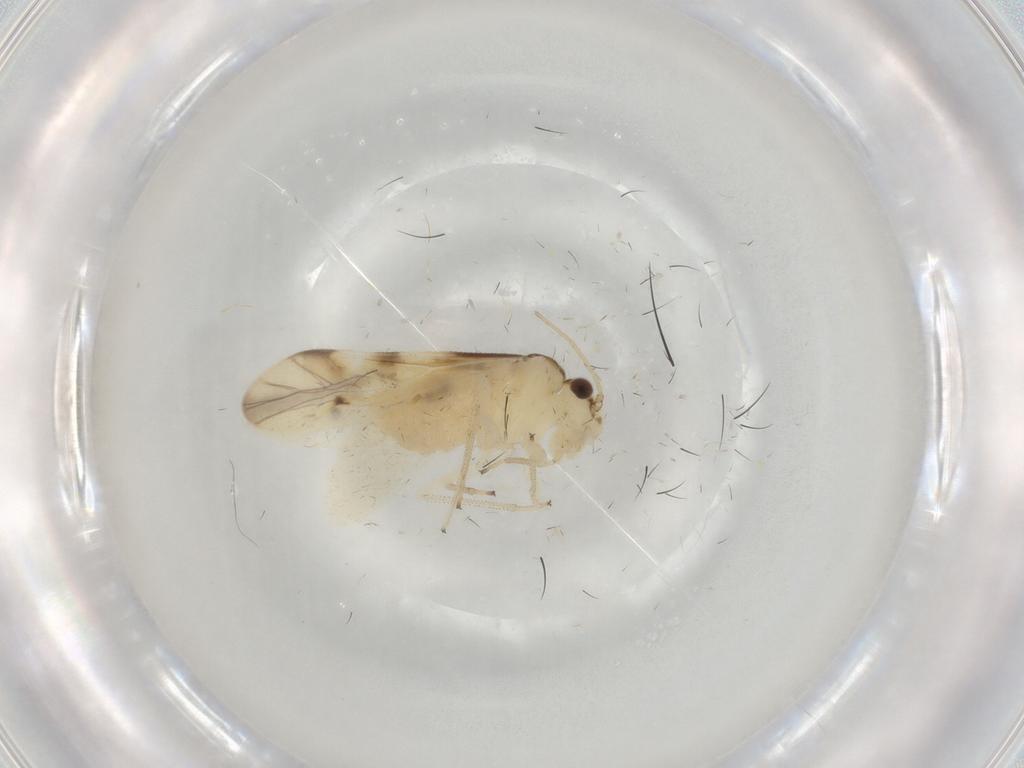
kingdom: Animalia
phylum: Arthropoda
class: Insecta
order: Psocodea
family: Caeciliusidae
